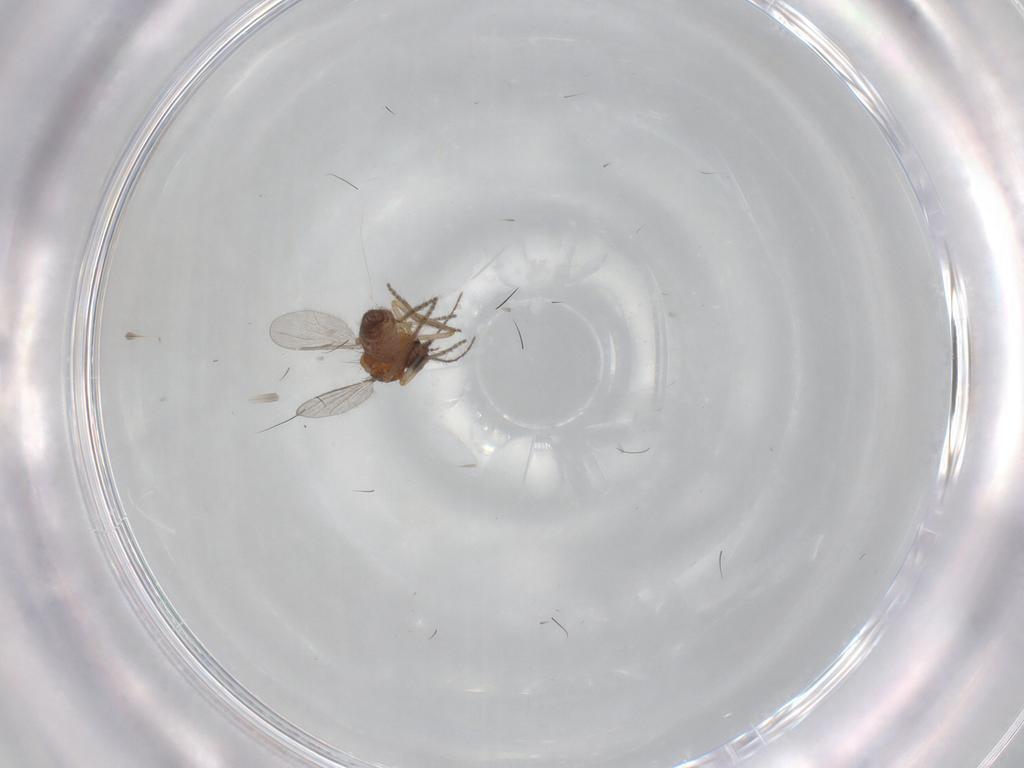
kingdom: Animalia
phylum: Arthropoda
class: Insecta
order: Diptera
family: Ceratopogonidae
